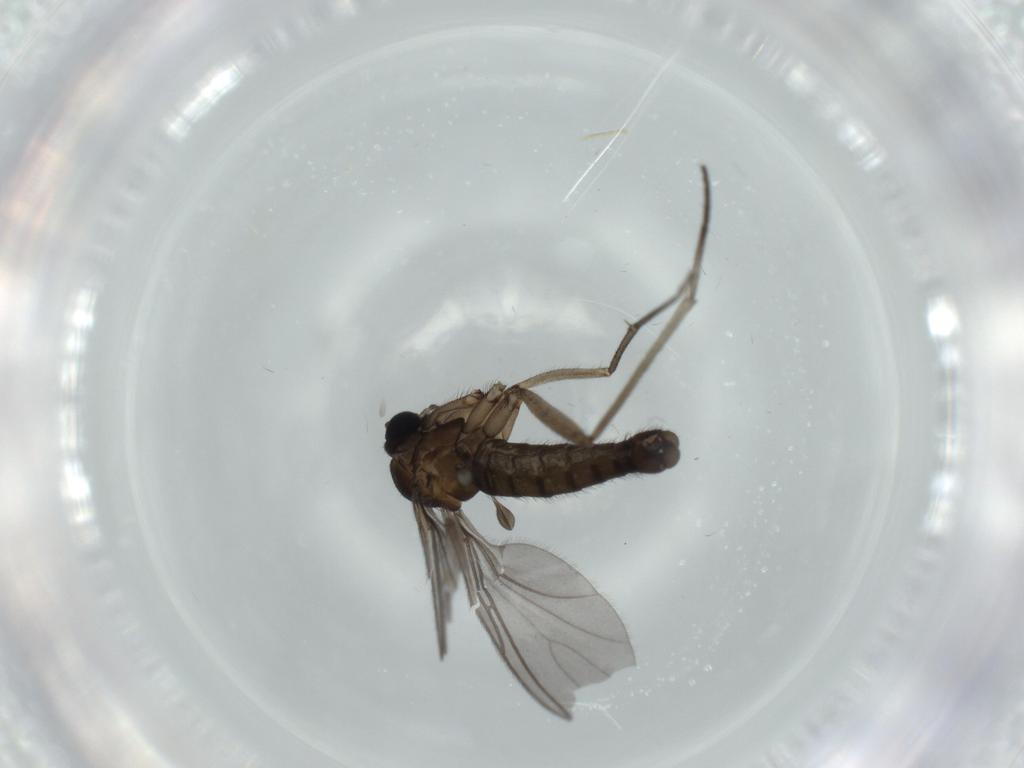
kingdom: Animalia
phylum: Arthropoda
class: Insecta
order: Diptera
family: Sciaridae
